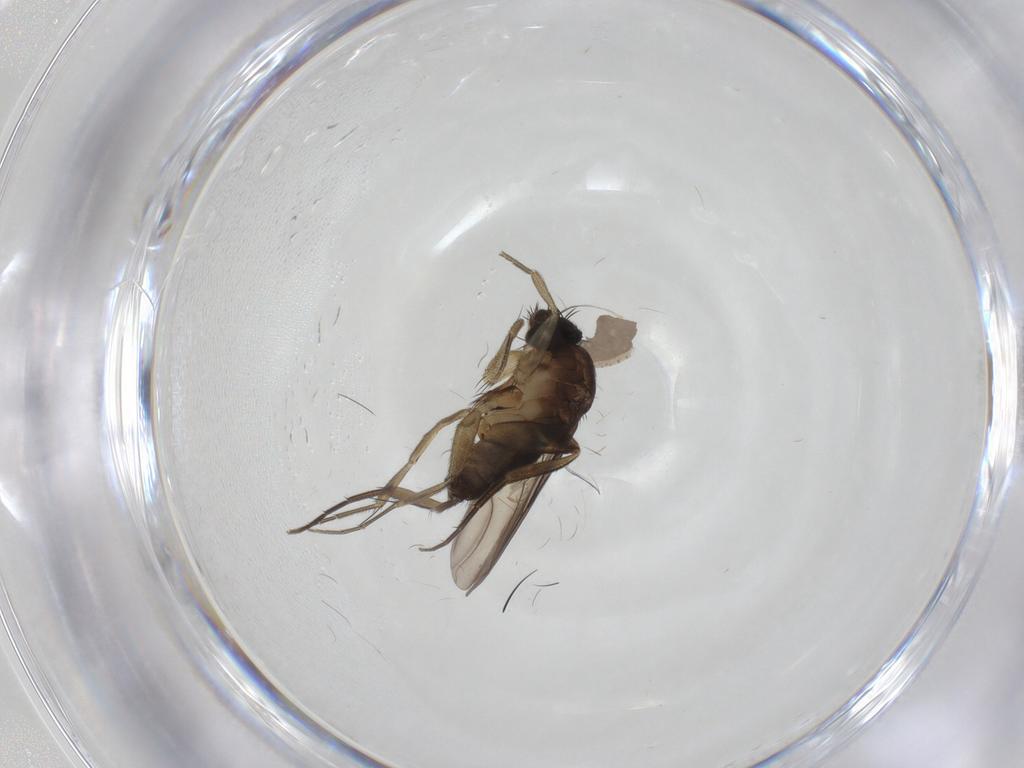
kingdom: Animalia
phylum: Arthropoda
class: Insecta
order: Diptera
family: Phoridae
